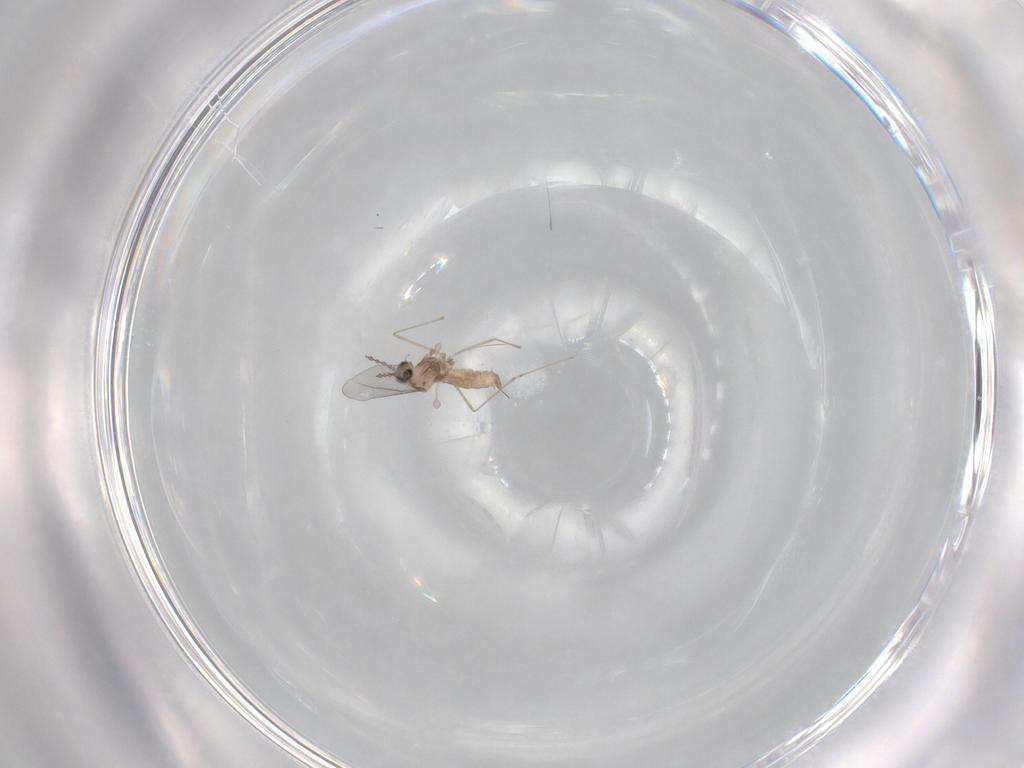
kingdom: Animalia
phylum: Arthropoda
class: Insecta
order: Diptera
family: Cecidomyiidae
